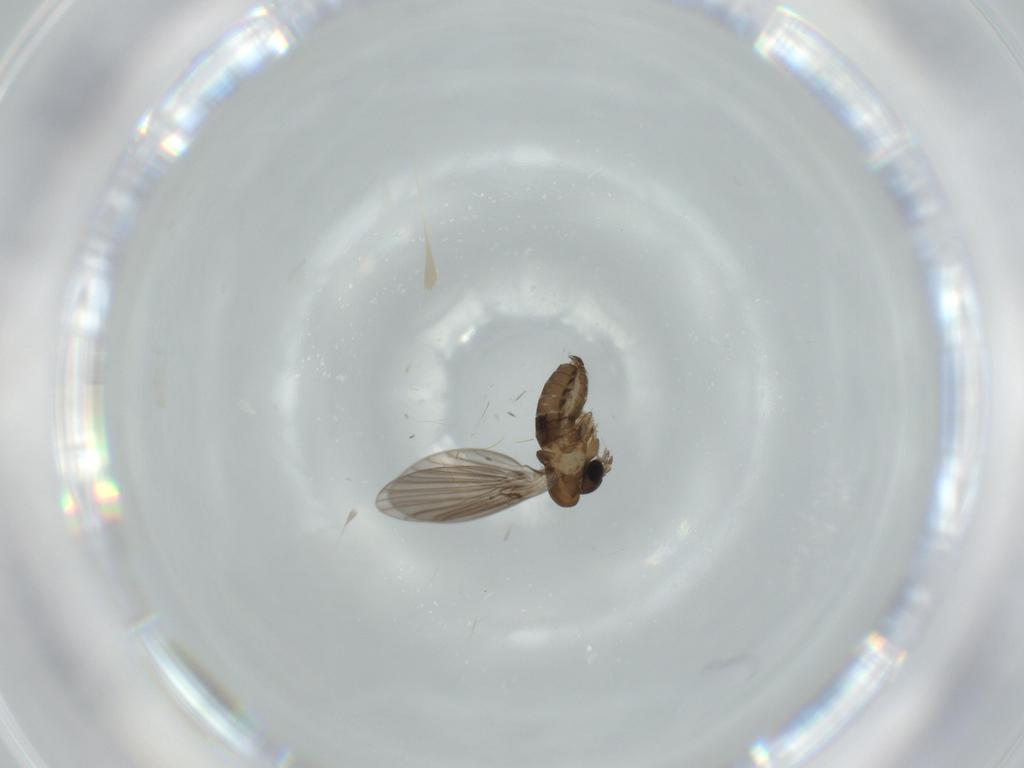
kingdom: Animalia
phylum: Arthropoda
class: Insecta
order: Diptera
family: Psychodidae
